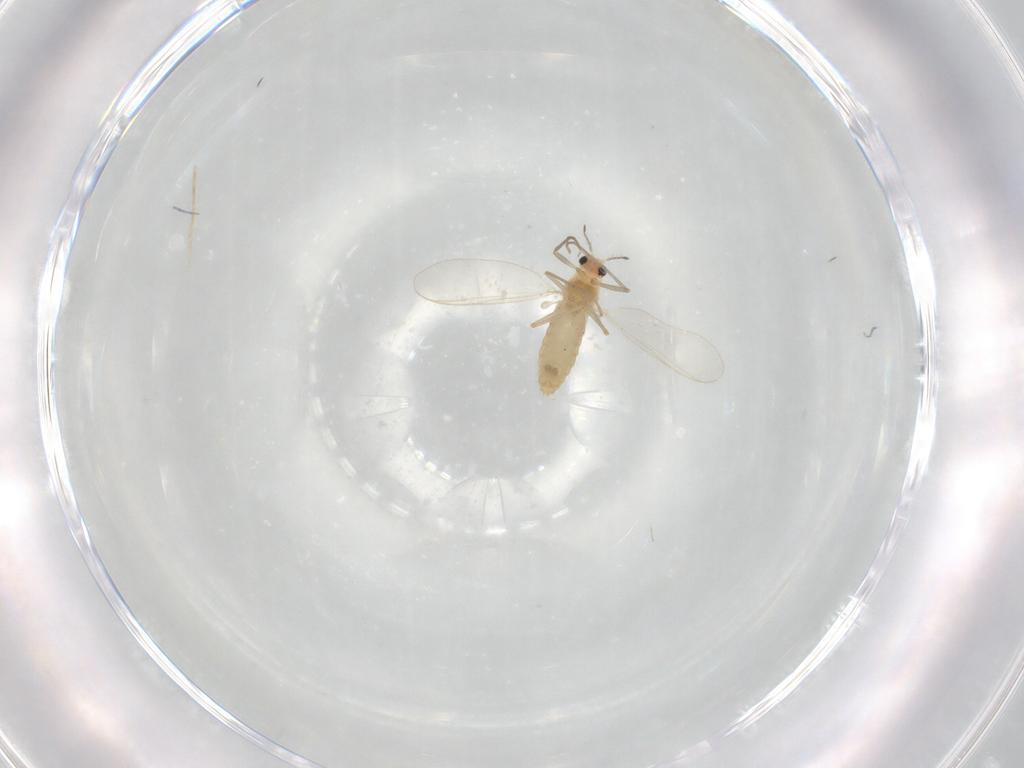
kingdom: Animalia
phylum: Arthropoda
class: Insecta
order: Diptera
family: Chironomidae
